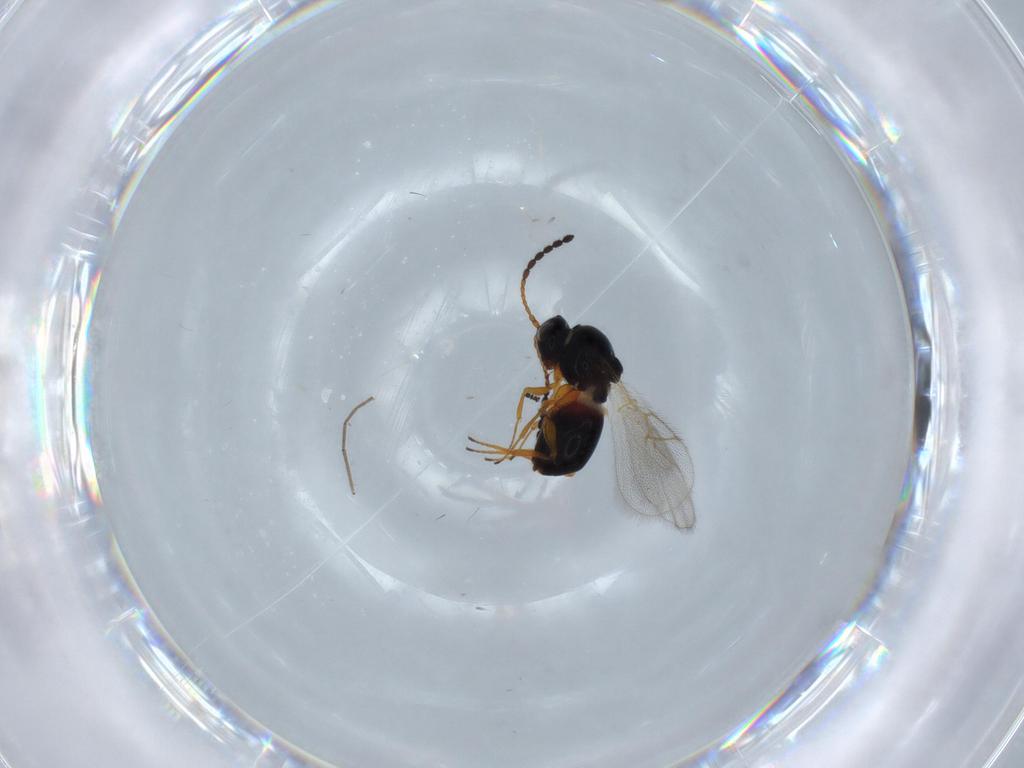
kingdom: Animalia
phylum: Arthropoda
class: Insecta
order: Hymenoptera
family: Figitidae
